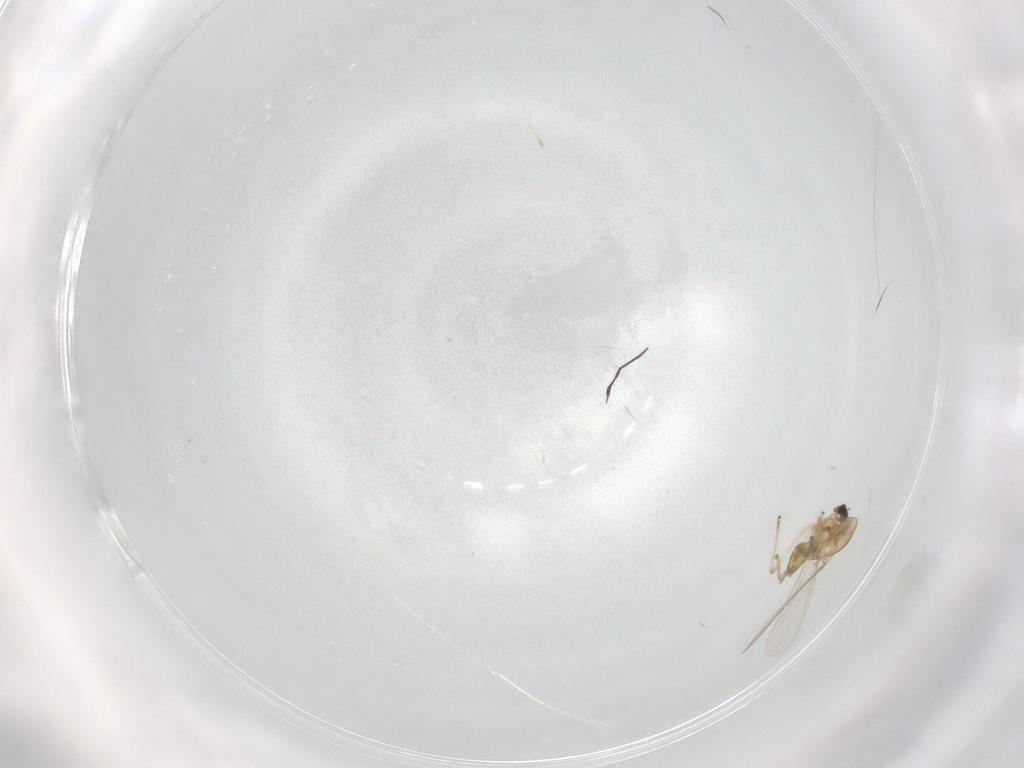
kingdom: Animalia
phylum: Arthropoda
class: Insecta
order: Diptera
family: Chironomidae
